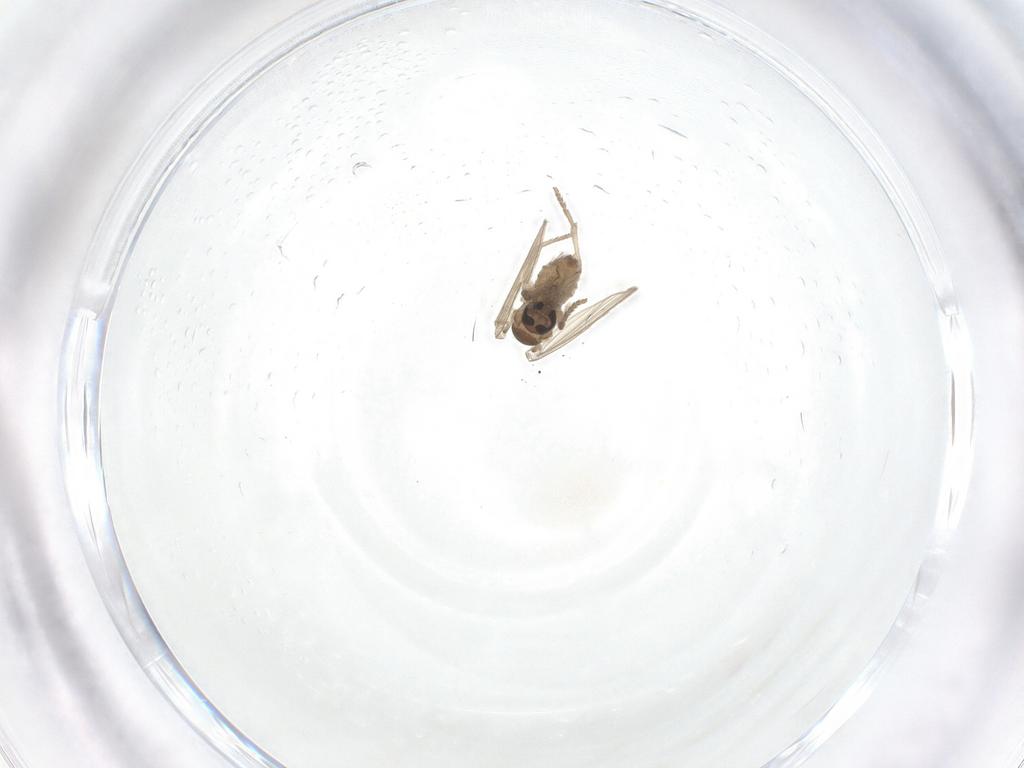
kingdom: Animalia
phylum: Arthropoda
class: Insecta
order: Diptera
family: Psychodidae
